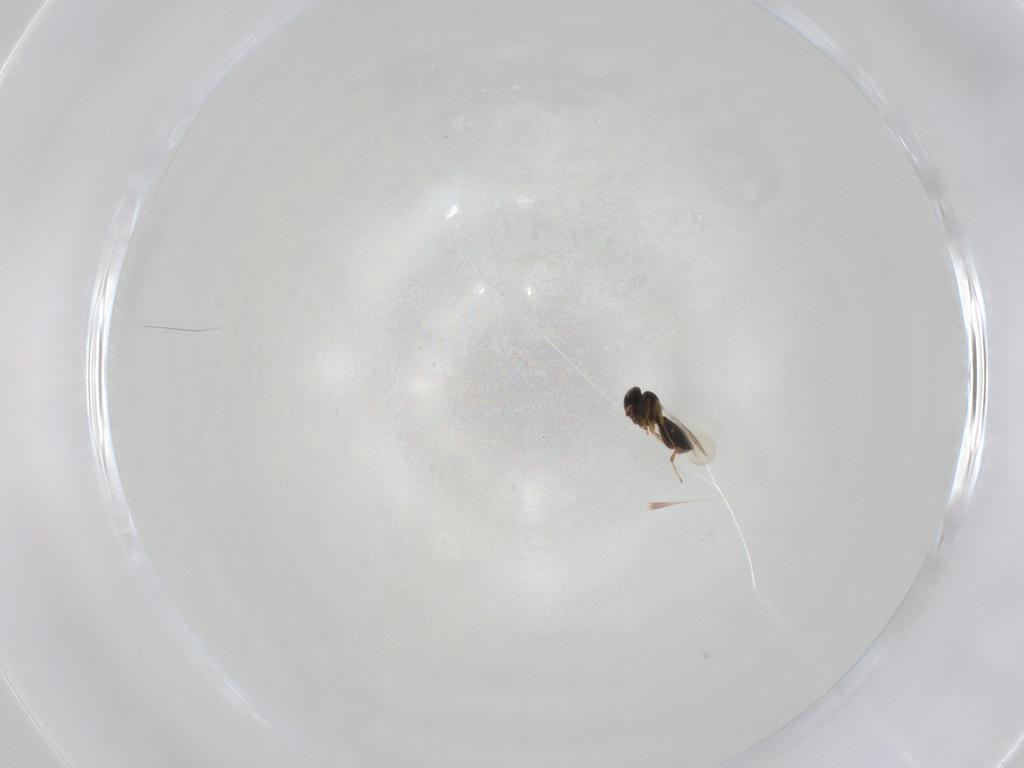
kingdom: Animalia
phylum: Arthropoda
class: Insecta
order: Hymenoptera
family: Platygastridae
